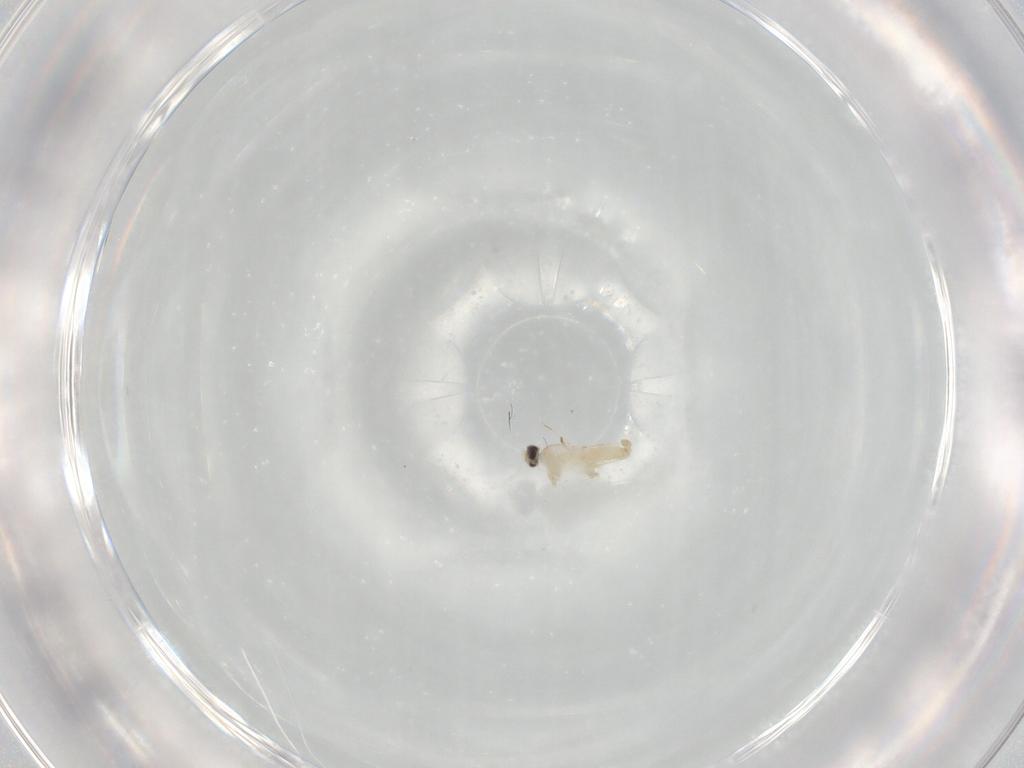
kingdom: Animalia
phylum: Arthropoda
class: Insecta
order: Diptera
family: Cecidomyiidae
